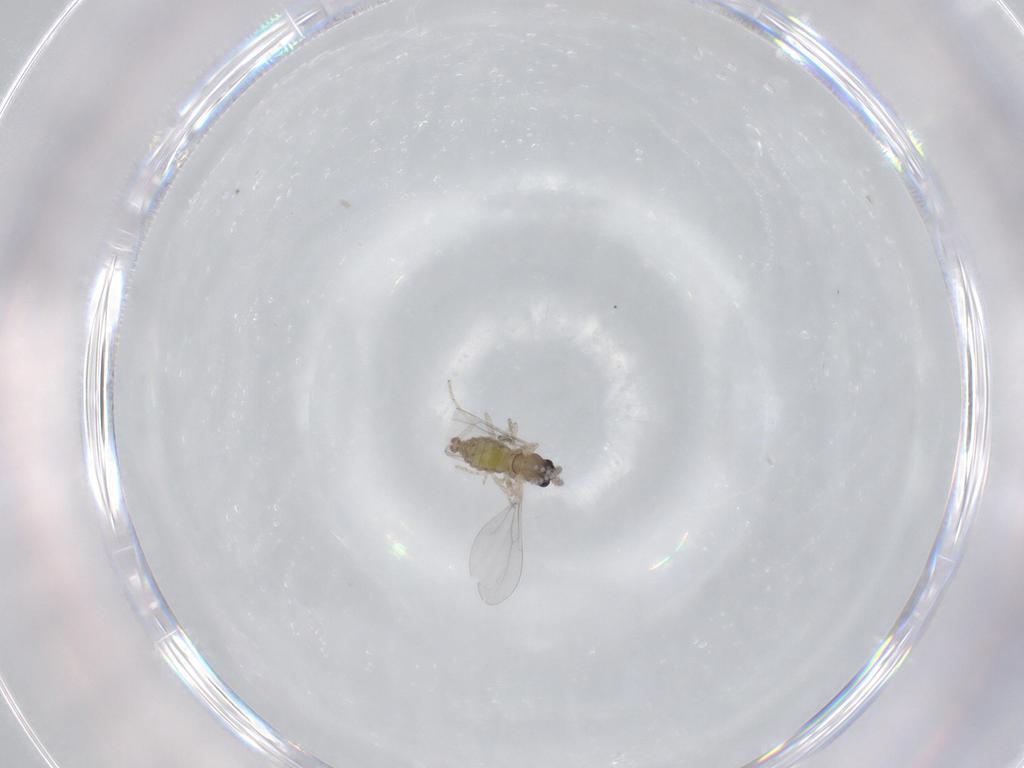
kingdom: Animalia
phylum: Arthropoda
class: Insecta
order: Diptera
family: Cecidomyiidae
